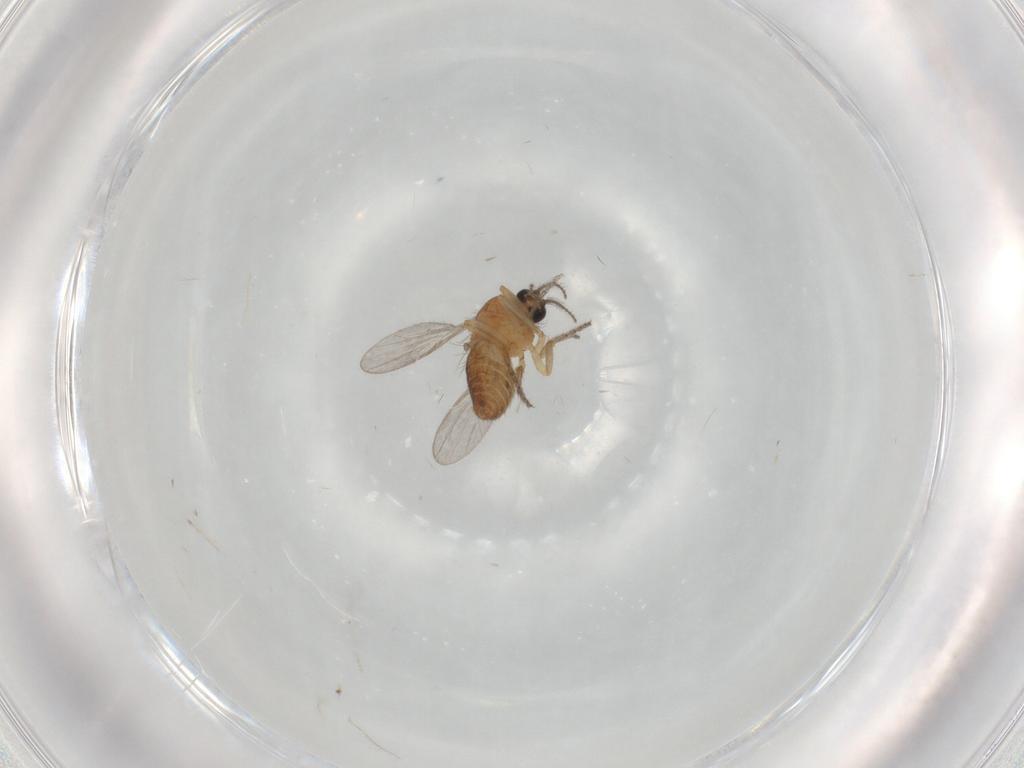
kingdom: Animalia
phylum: Arthropoda
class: Insecta
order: Diptera
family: Ceratopogonidae
